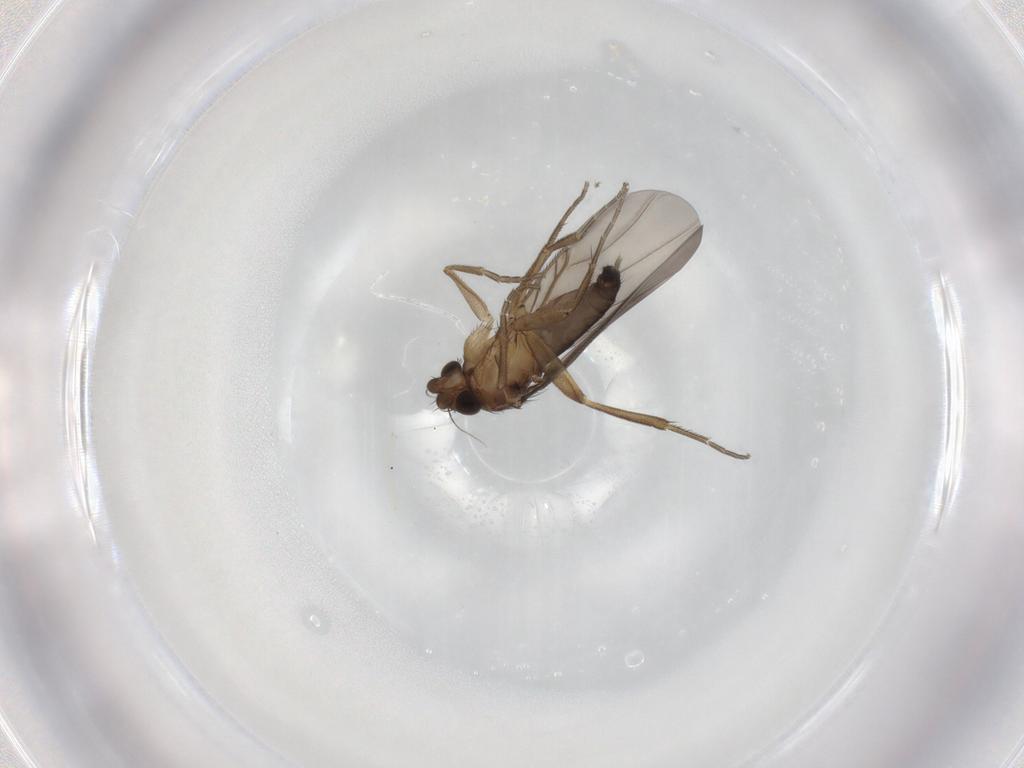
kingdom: Animalia
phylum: Arthropoda
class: Insecta
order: Diptera
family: Phoridae
